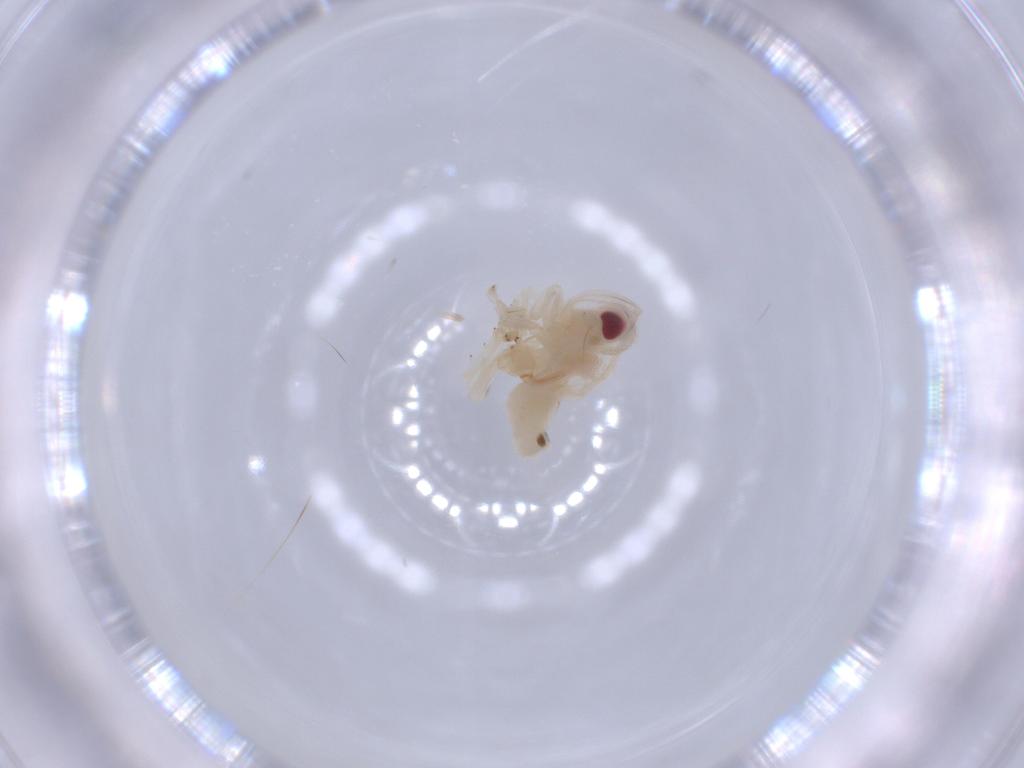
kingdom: Animalia
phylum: Arthropoda
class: Insecta
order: Hemiptera
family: Nogodinidae
